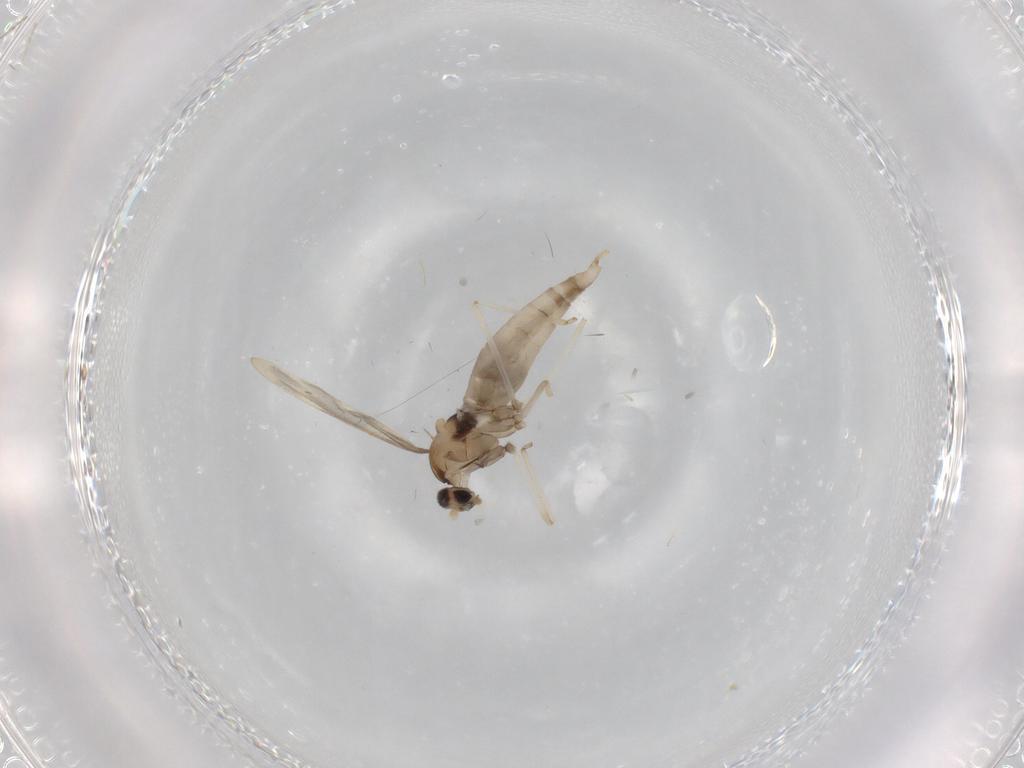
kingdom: Animalia
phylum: Arthropoda
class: Insecta
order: Diptera
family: Cecidomyiidae
